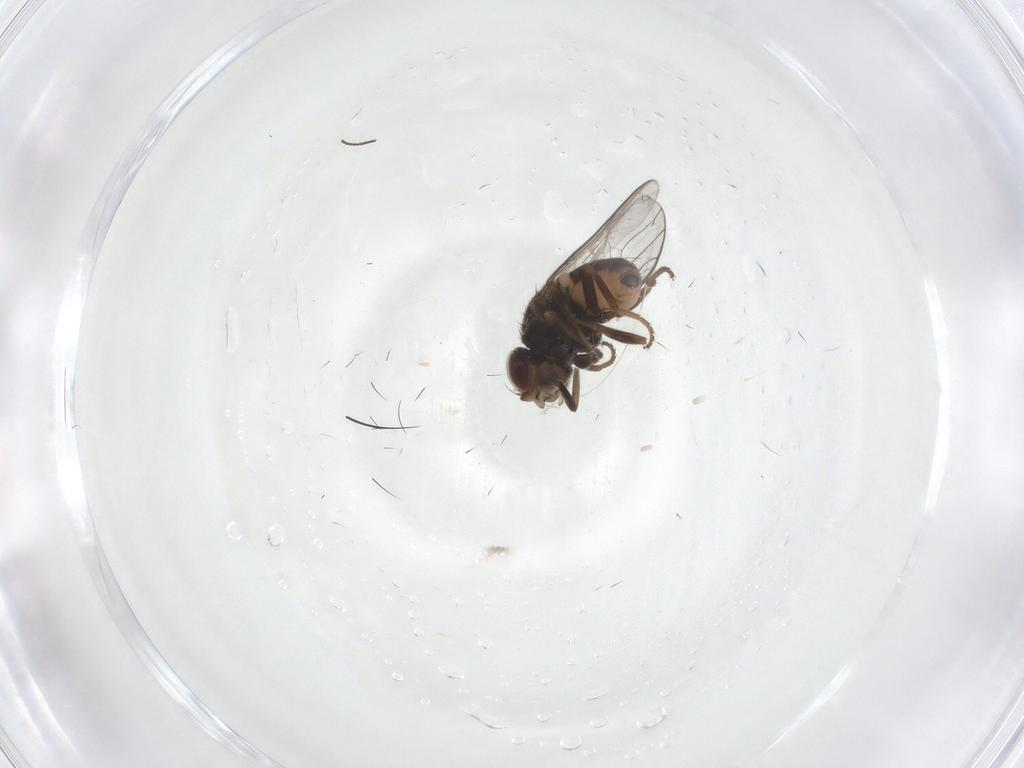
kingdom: Animalia
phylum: Arthropoda
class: Insecta
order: Diptera
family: Chloropidae
